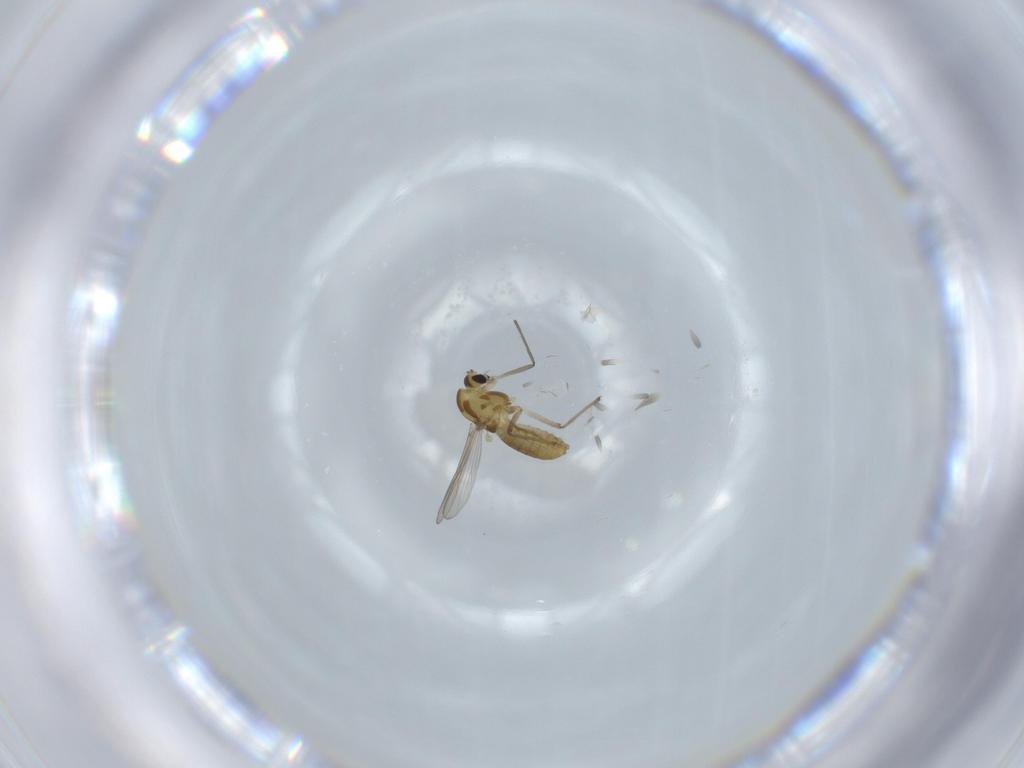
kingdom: Animalia
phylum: Arthropoda
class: Insecta
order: Diptera
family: Chironomidae
